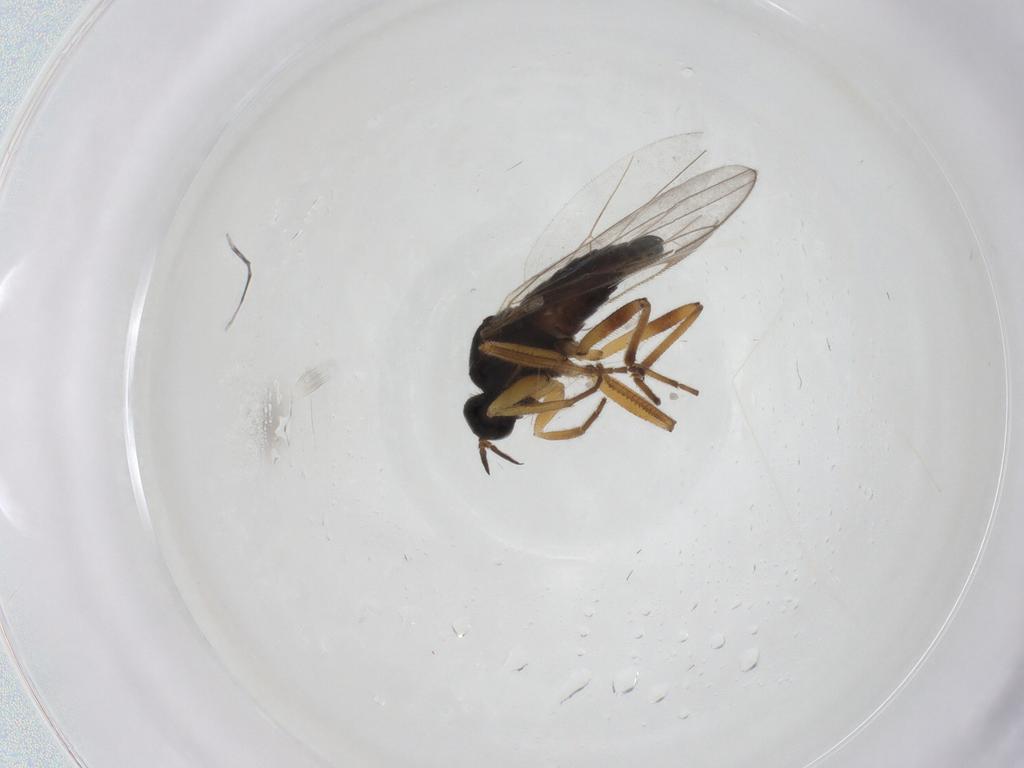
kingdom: Animalia
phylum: Arthropoda
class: Insecta
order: Diptera
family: Hybotidae
